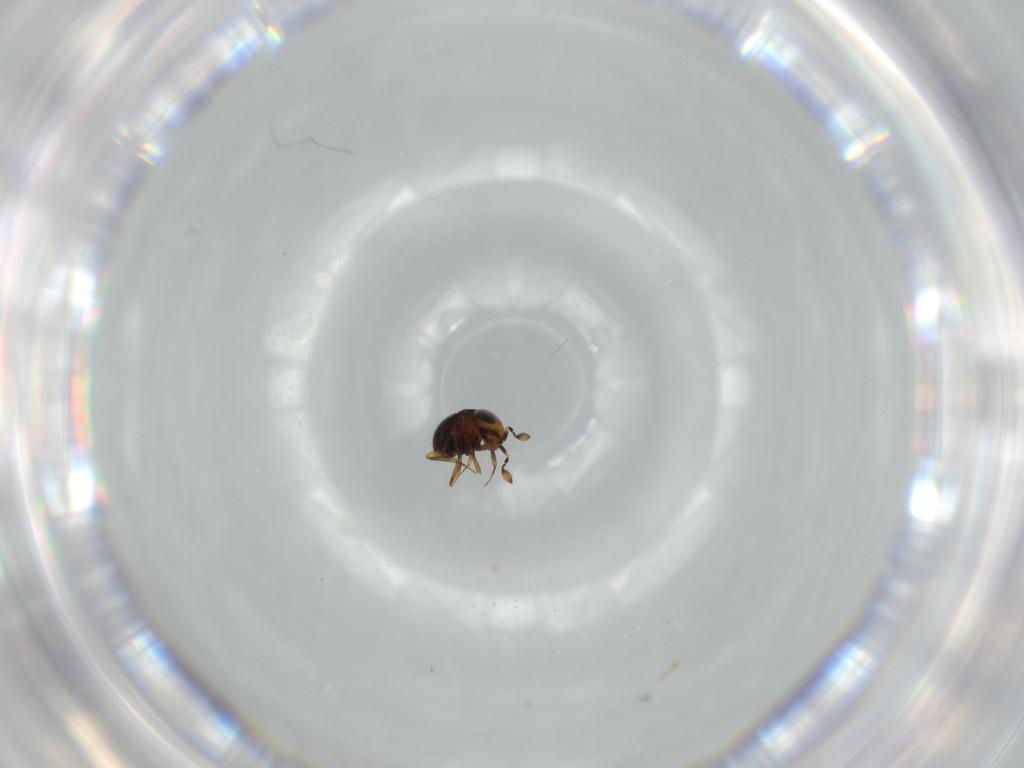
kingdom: Animalia
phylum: Arthropoda
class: Insecta
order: Hymenoptera
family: Scelionidae
